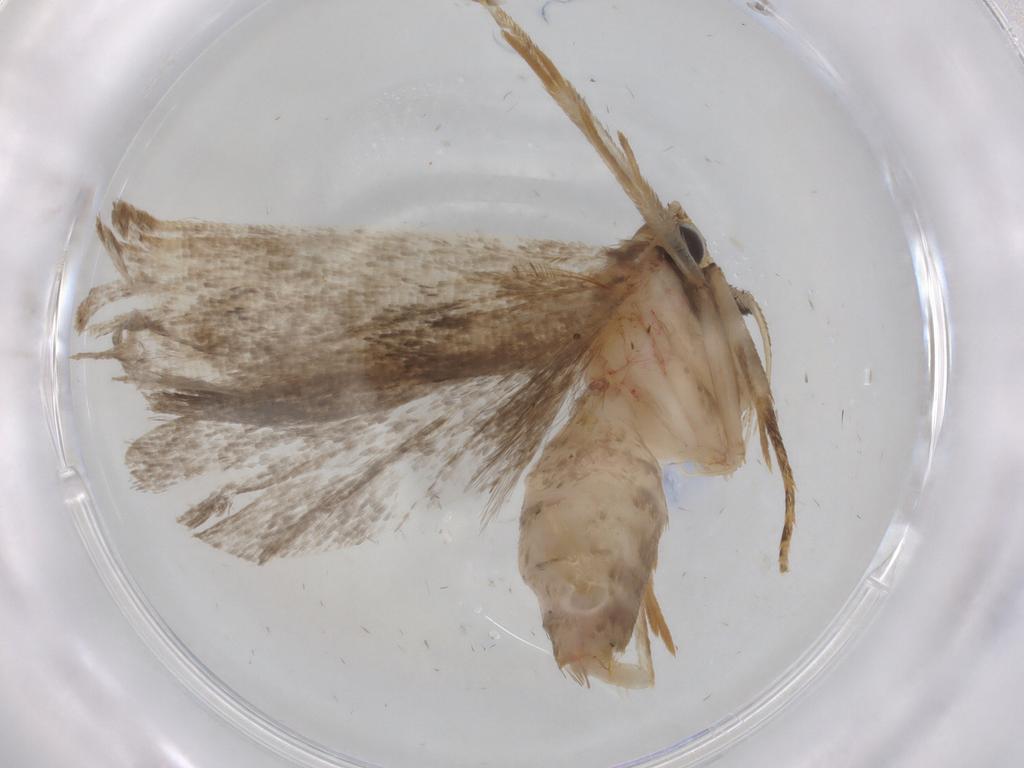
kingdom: Animalia
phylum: Arthropoda
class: Insecta
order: Lepidoptera
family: Gelechiidae
